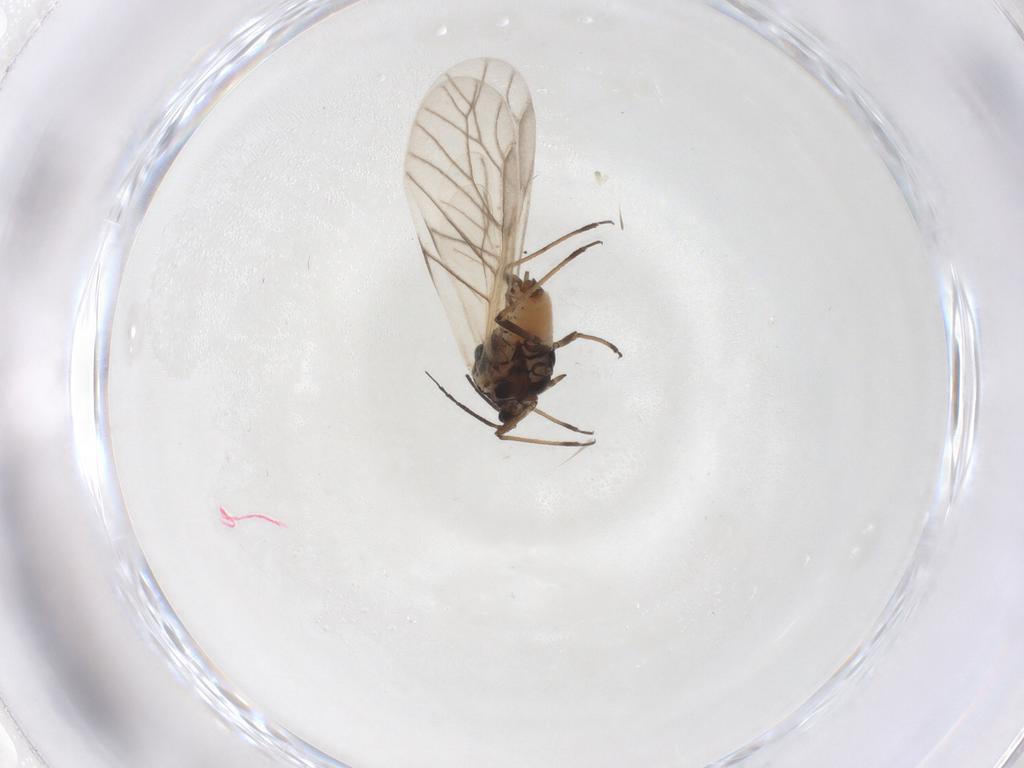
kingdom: Animalia
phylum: Arthropoda
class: Insecta
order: Hemiptera
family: Aphididae
